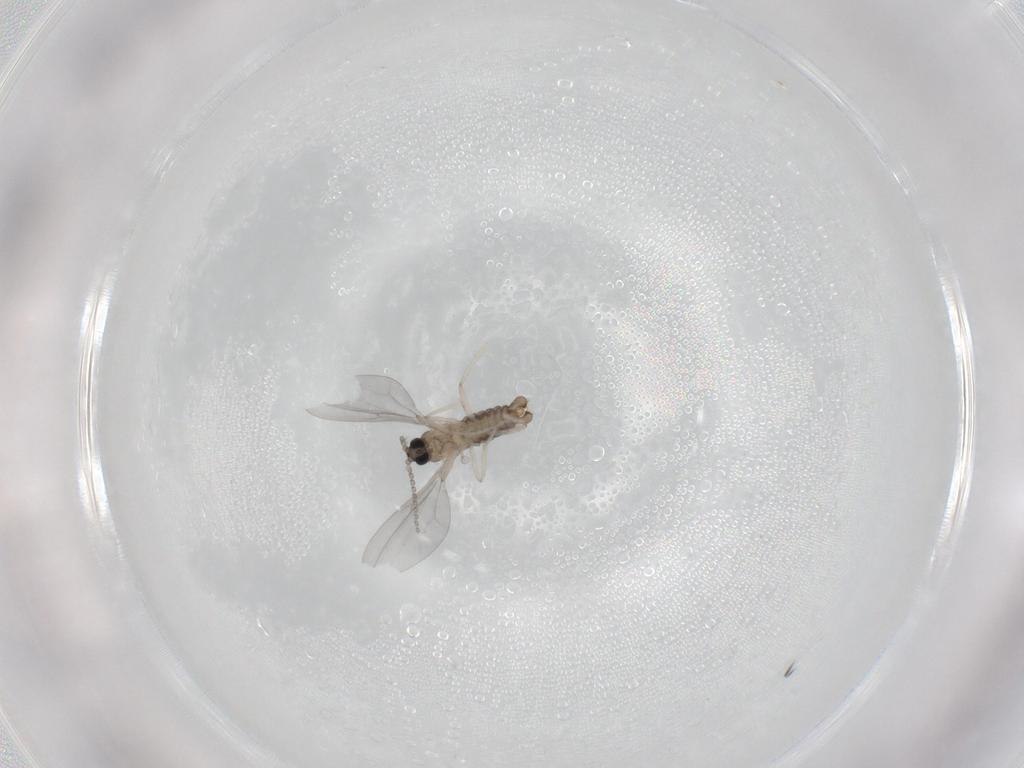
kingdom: Animalia
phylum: Arthropoda
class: Insecta
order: Diptera
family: Cecidomyiidae
